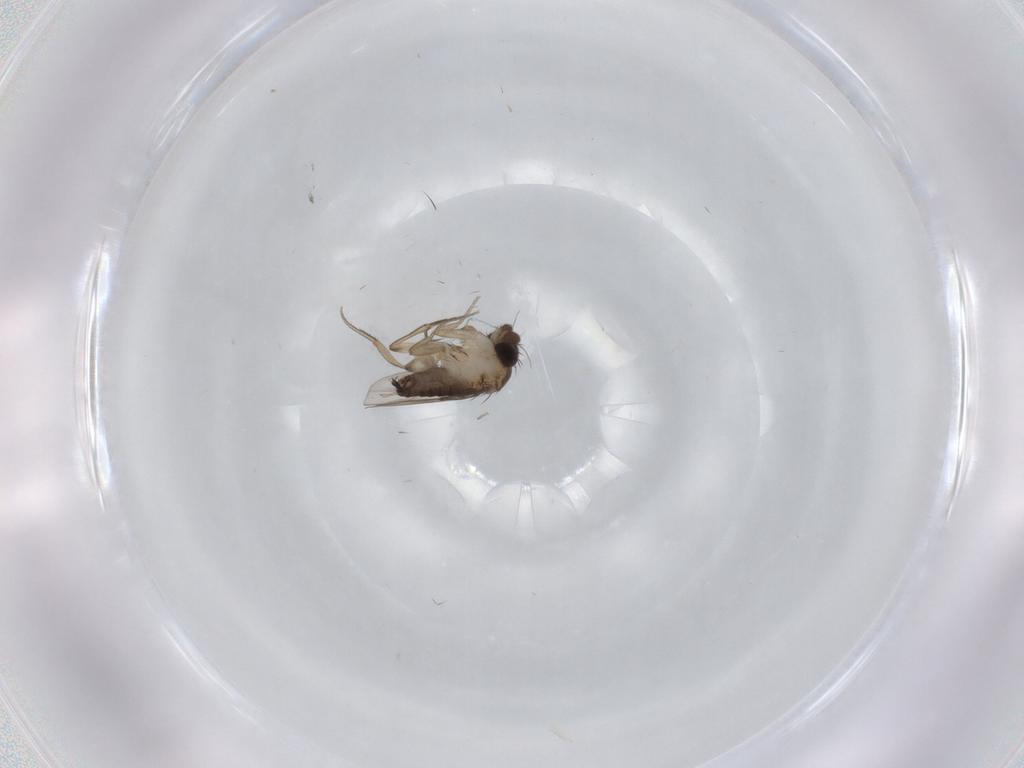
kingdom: Animalia
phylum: Arthropoda
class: Insecta
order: Diptera
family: Phoridae
